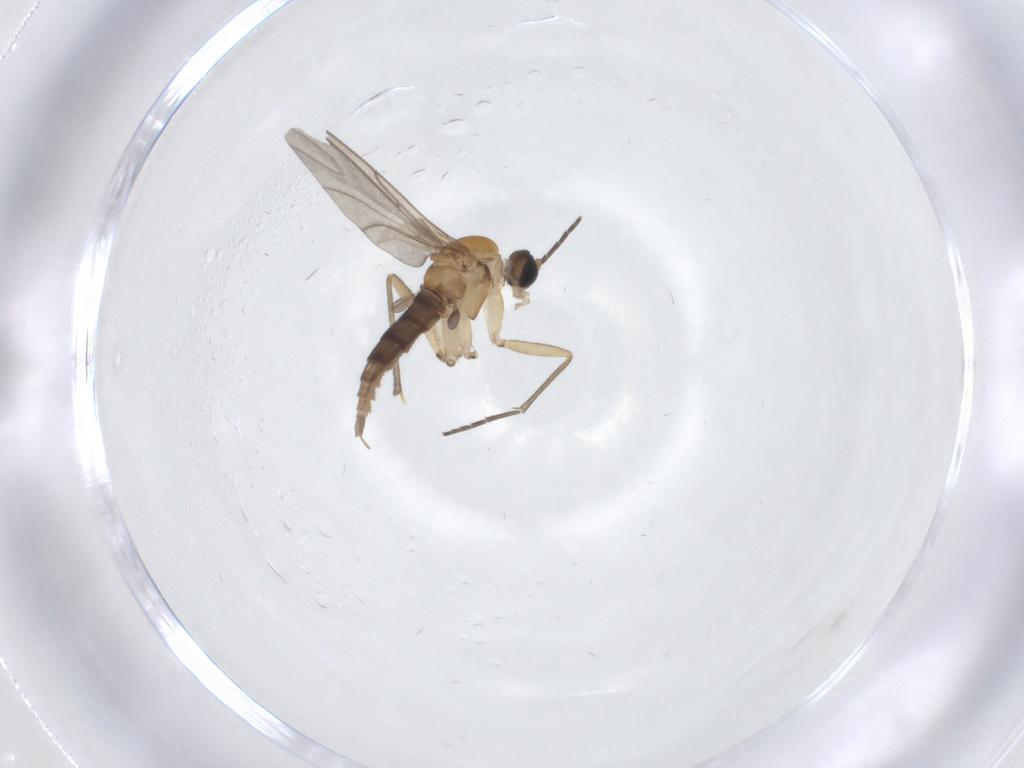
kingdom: Animalia
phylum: Arthropoda
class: Insecta
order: Diptera
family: Sciaridae
